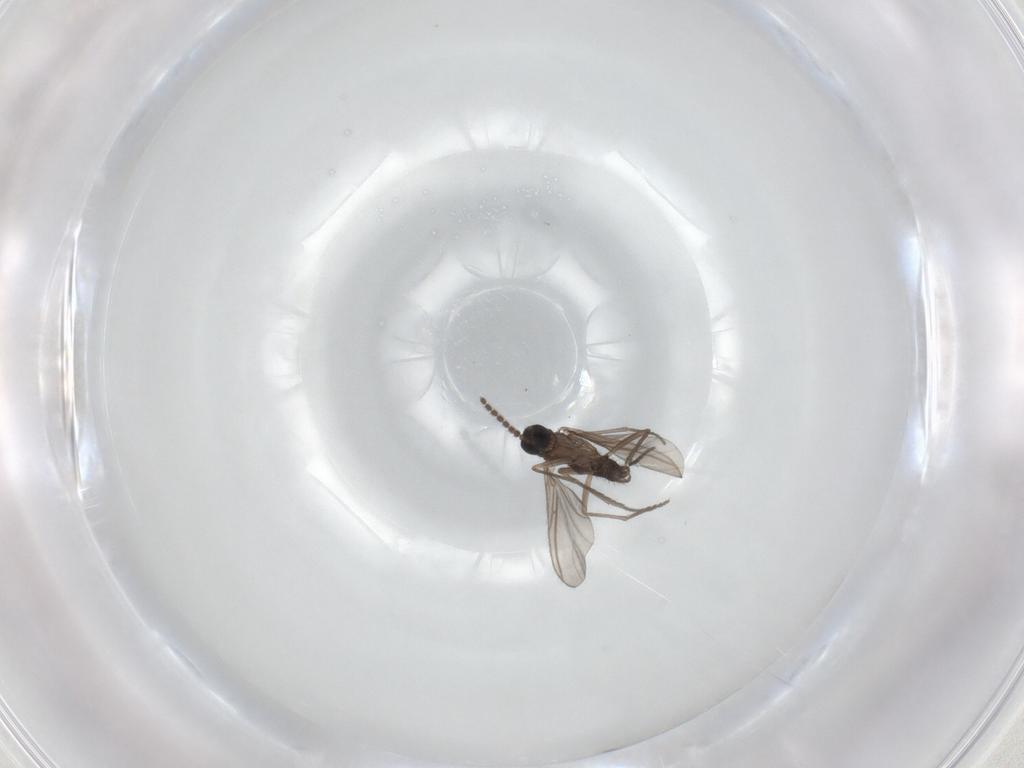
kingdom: Animalia
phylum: Arthropoda
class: Insecta
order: Diptera
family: Sciaridae
